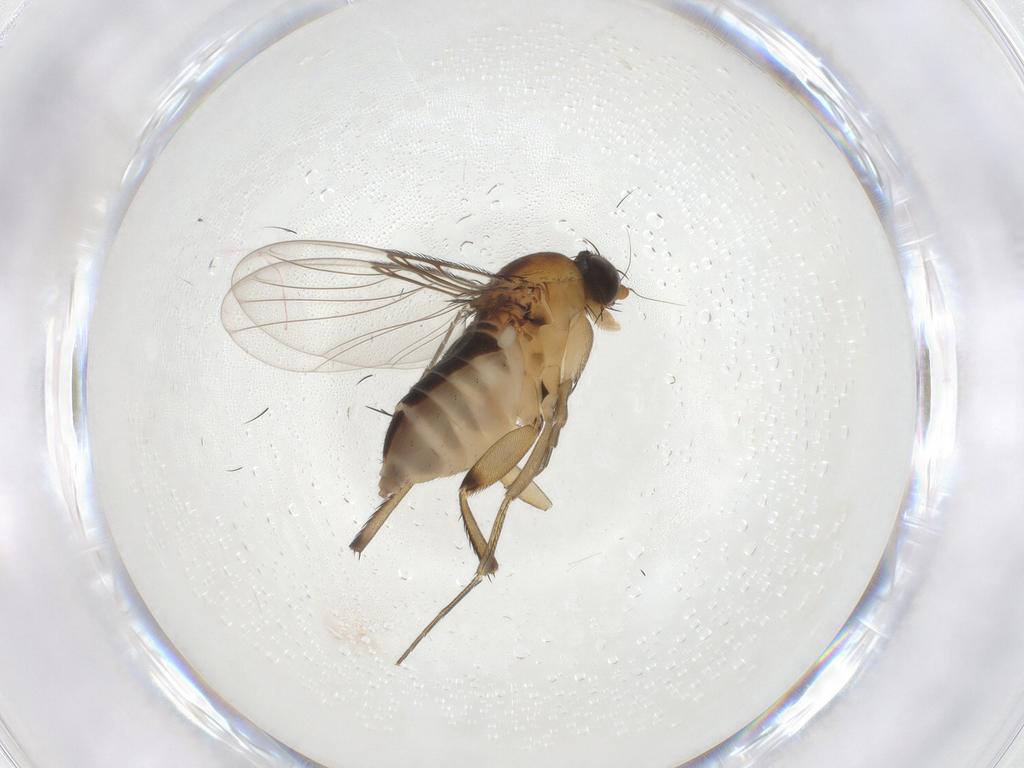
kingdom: Animalia
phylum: Arthropoda
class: Insecta
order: Diptera
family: Phoridae
